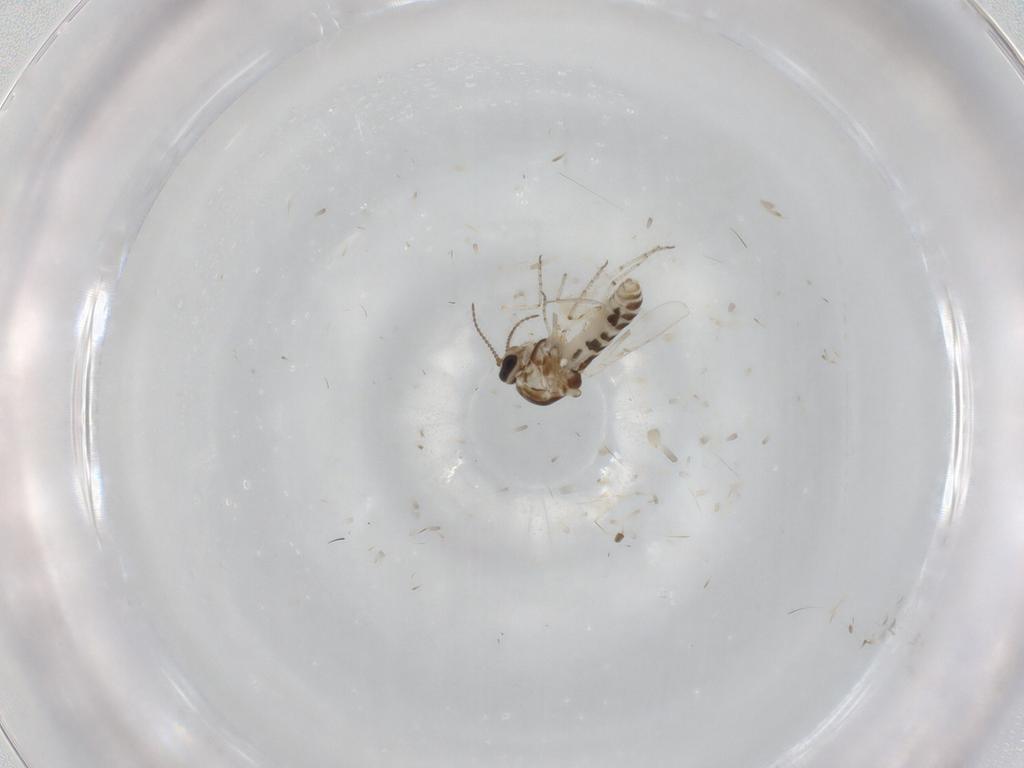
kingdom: Animalia
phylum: Arthropoda
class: Insecta
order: Diptera
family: Ceratopogonidae
